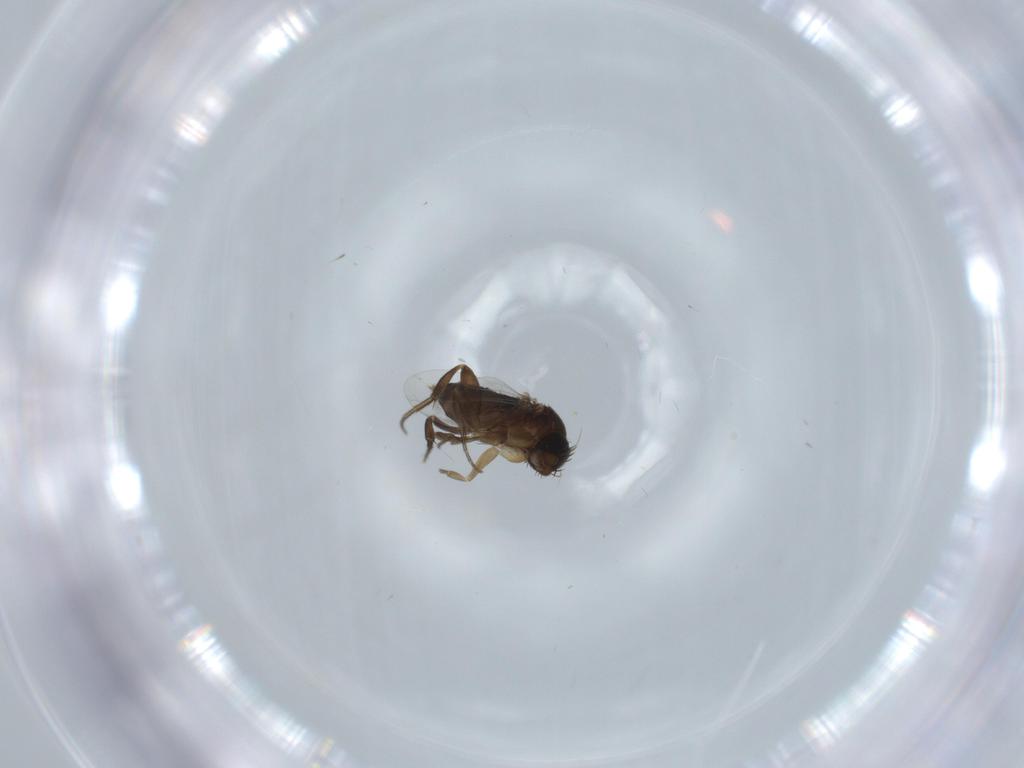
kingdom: Animalia
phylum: Arthropoda
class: Insecta
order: Diptera
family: Phoridae
